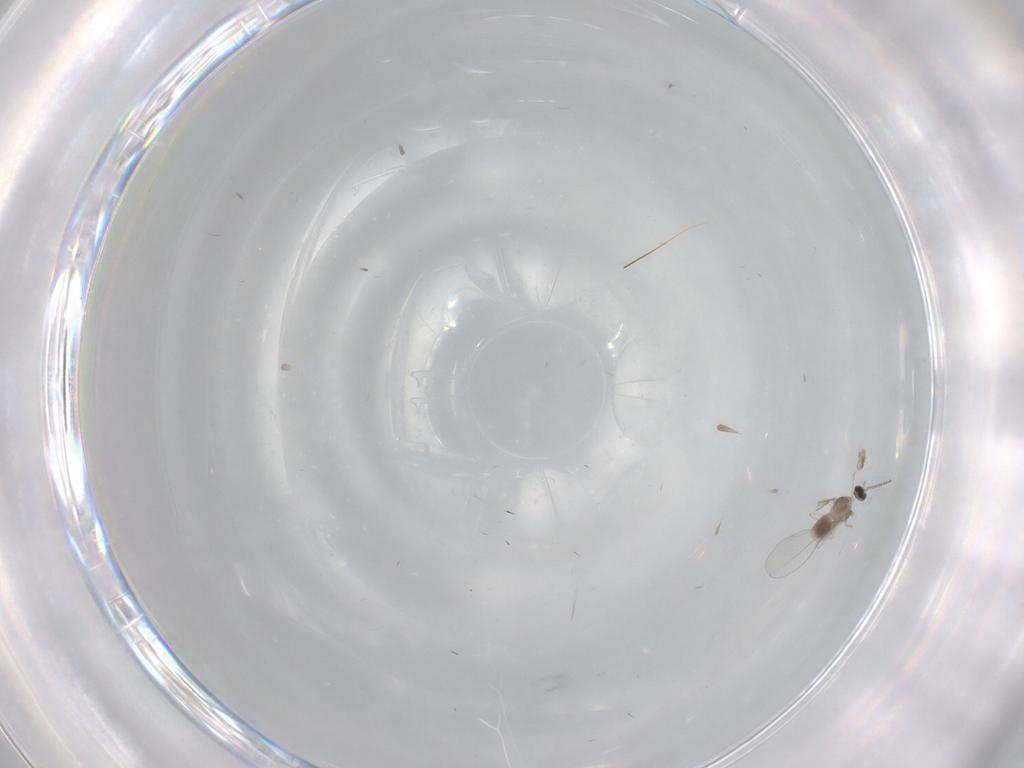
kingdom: Animalia
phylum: Arthropoda
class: Insecta
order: Diptera
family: Cecidomyiidae
